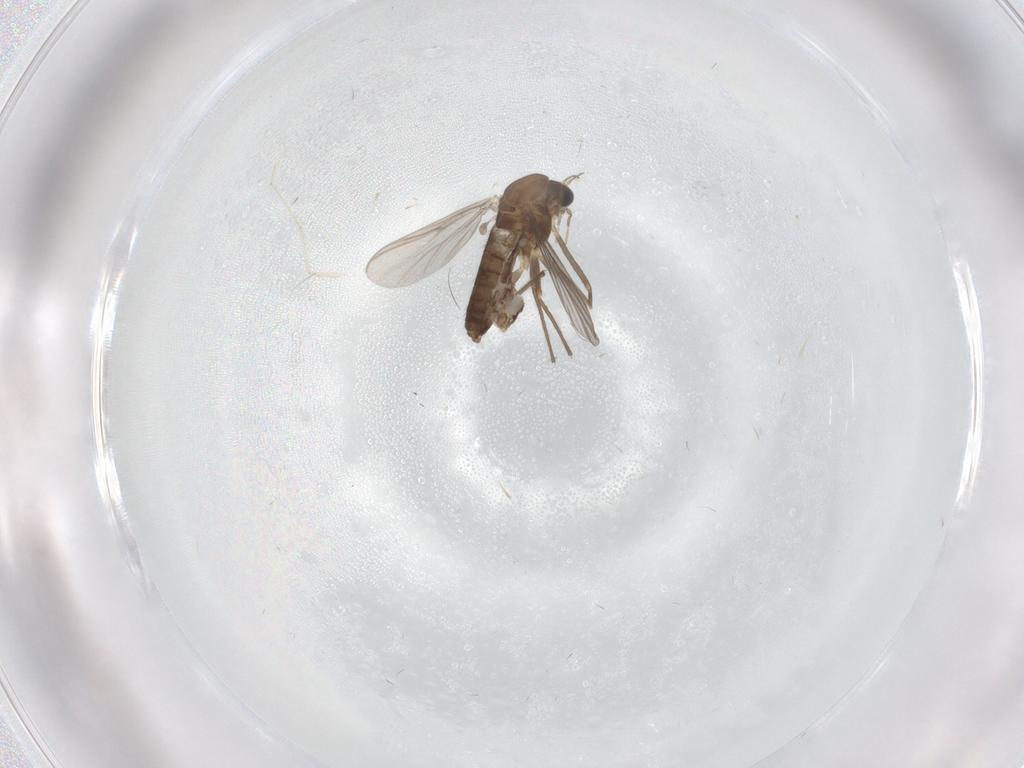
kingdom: Animalia
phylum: Arthropoda
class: Insecta
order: Diptera
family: Chironomidae
